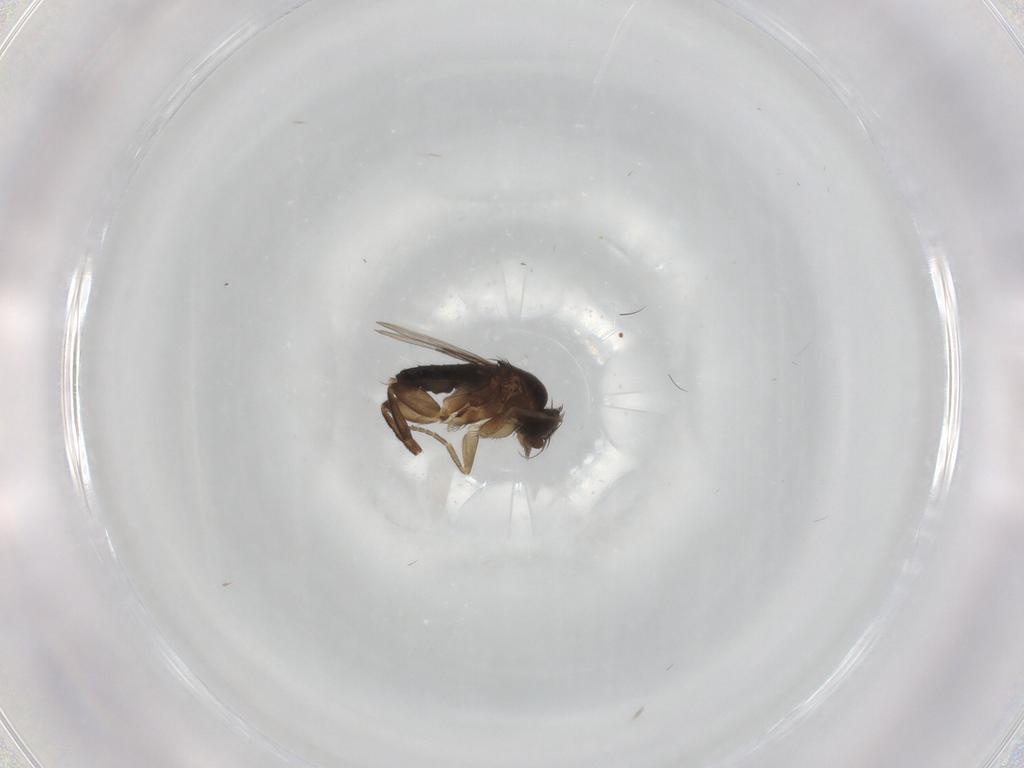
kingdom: Animalia
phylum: Arthropoda
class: Insecta
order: Diptera
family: Phoridae
